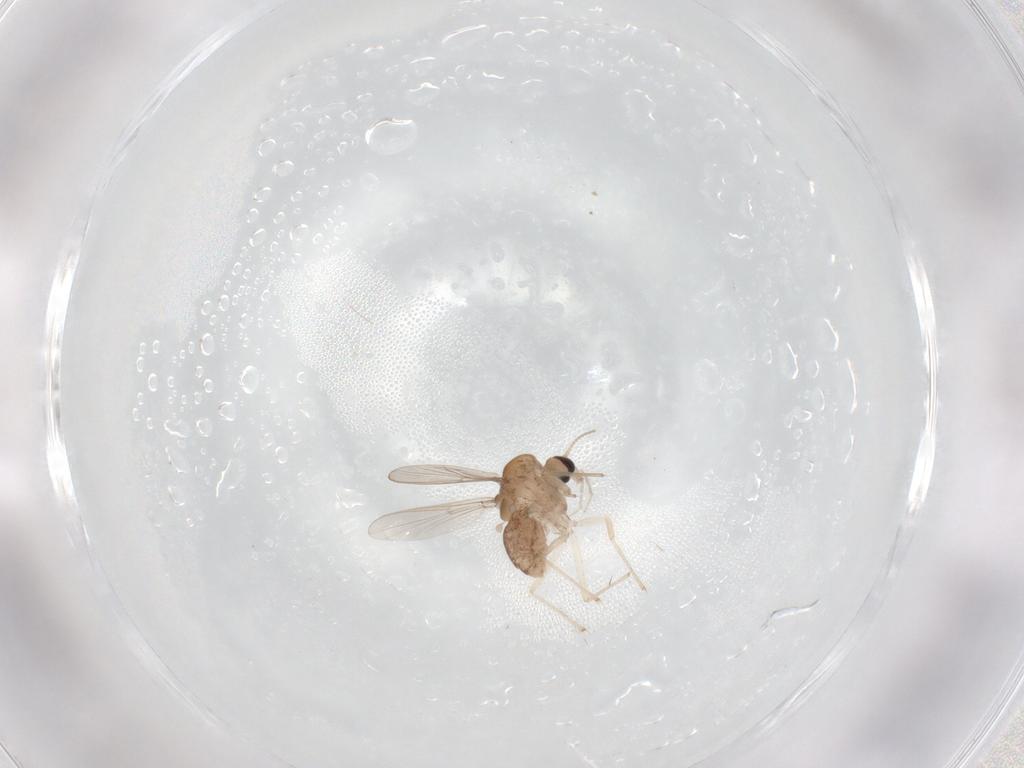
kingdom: Animalia
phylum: Arthropoda
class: Insecta
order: Diptera
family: Chironomidae
